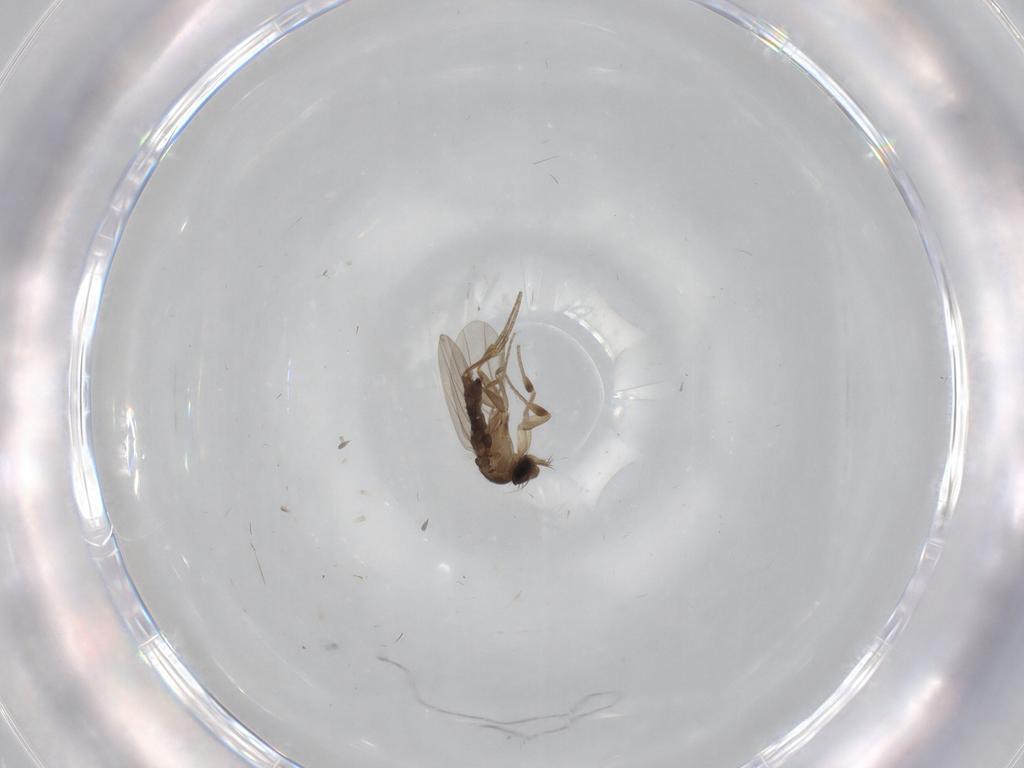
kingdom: Animalia
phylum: Arthropoda
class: Insecta
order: Diptera
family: Phoridae
